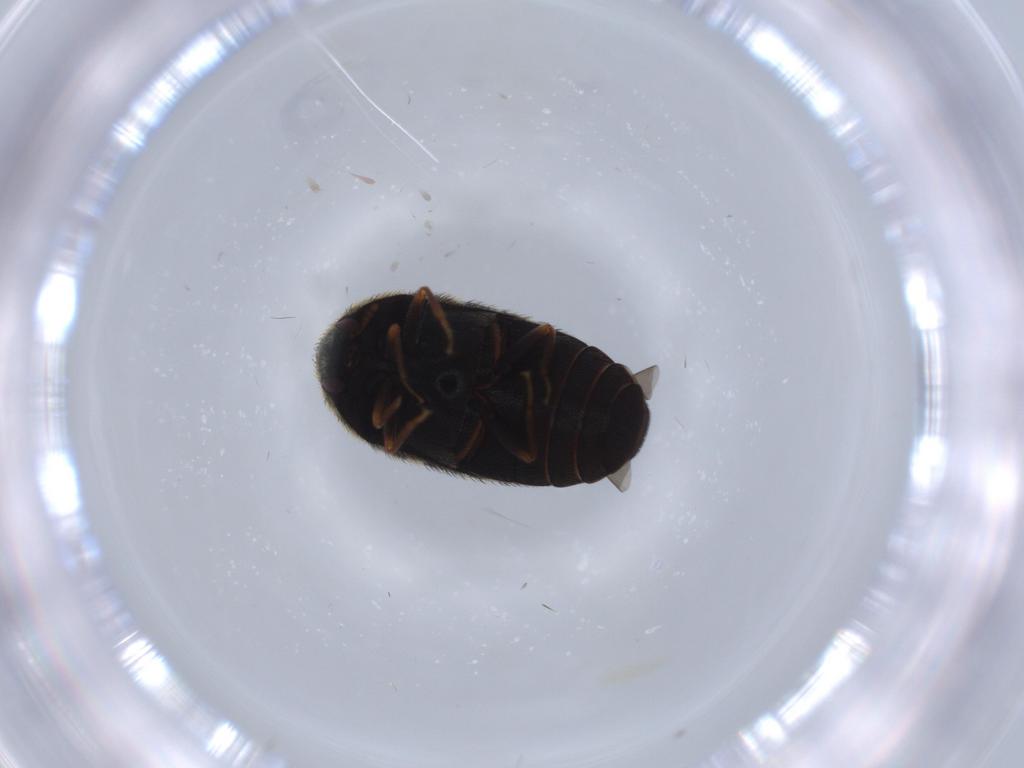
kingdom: Animalia
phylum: Arthropoda
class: Insecta
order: Coleoptera
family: Dermestidae
